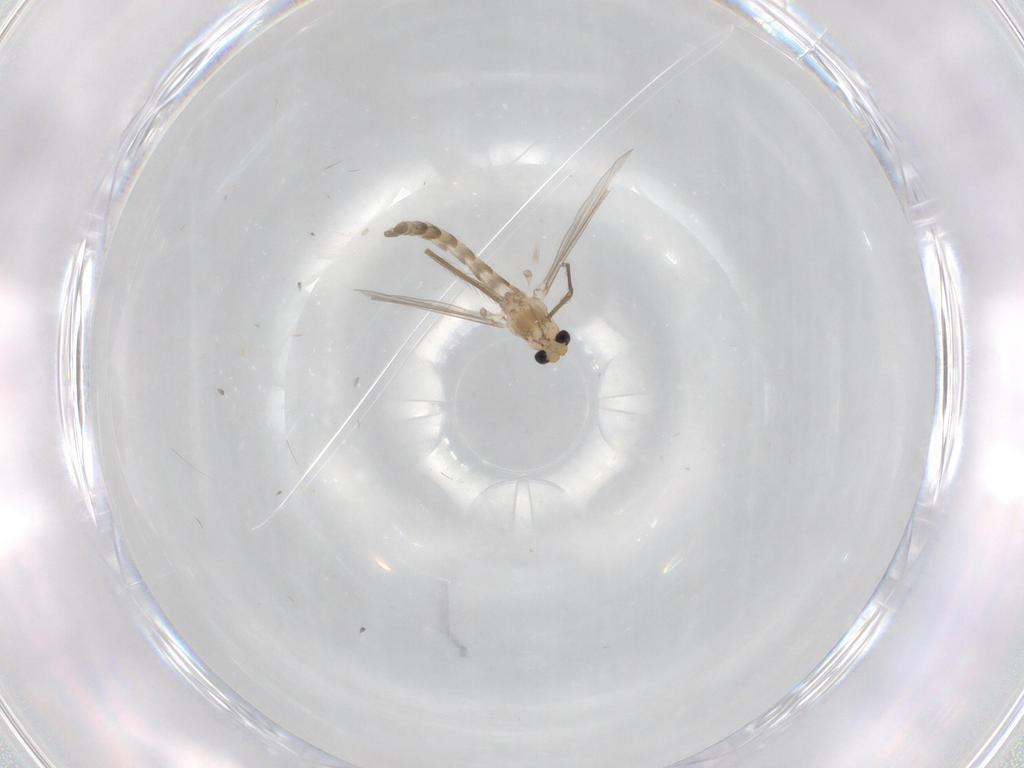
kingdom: Animalia
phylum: Arthropoda
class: Insecta
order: Diptera
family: Chironomidae
